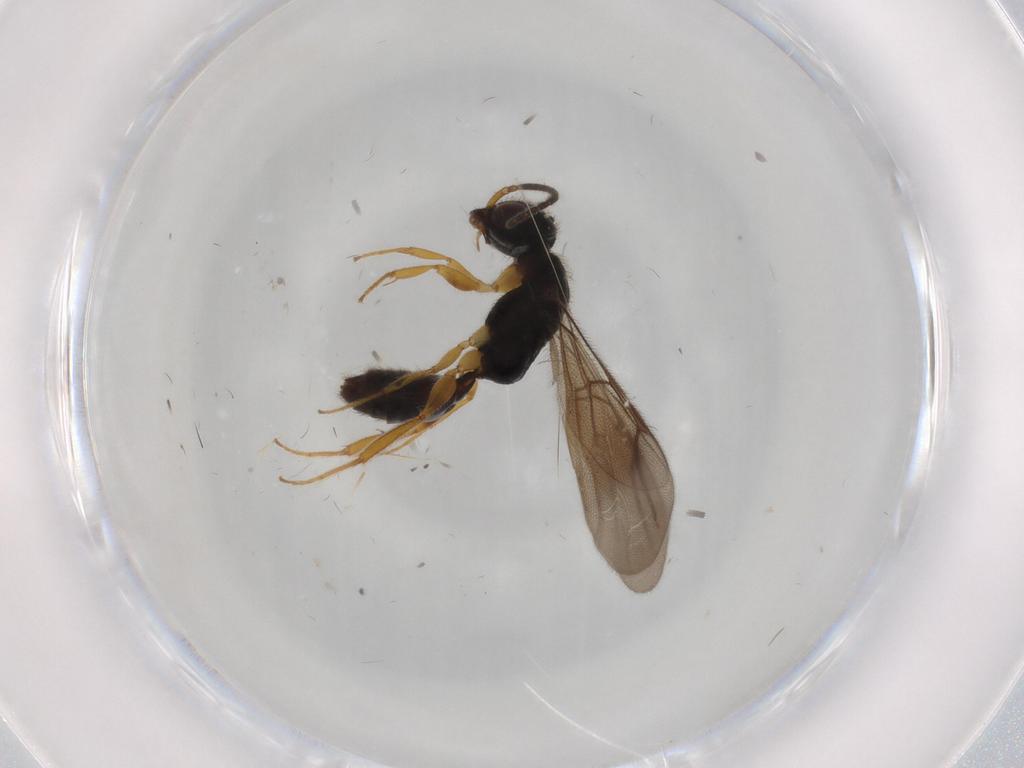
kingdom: Animalia
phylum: Arthropoda
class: Insecta
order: Hymenoptera
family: Bethylidae
